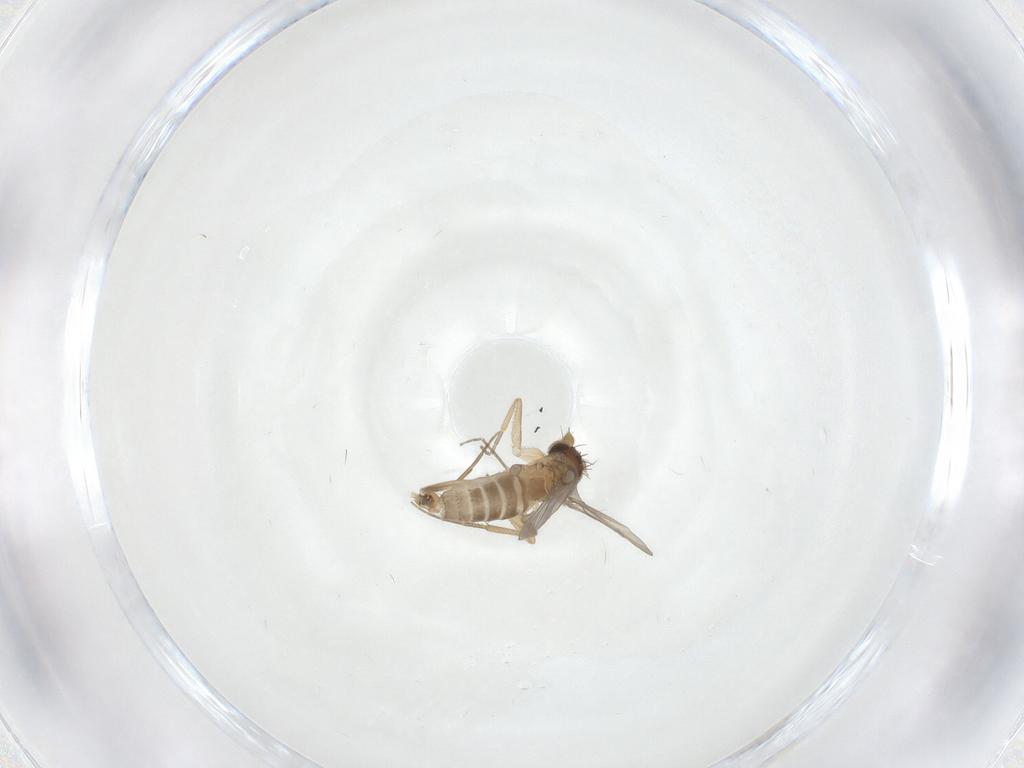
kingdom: Animalia
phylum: Arthropoda
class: Insecta
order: Diptera
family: Phoridae
